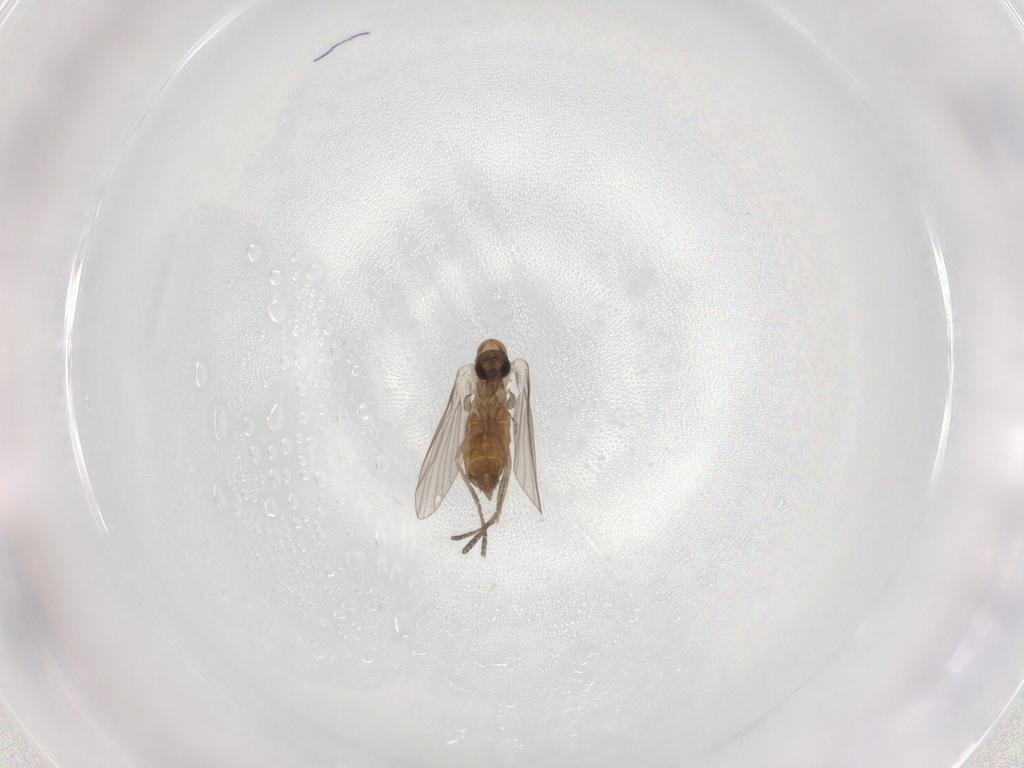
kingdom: Animalia
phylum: Arthropoda
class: Insecta
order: Diptera
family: Psychodidae
